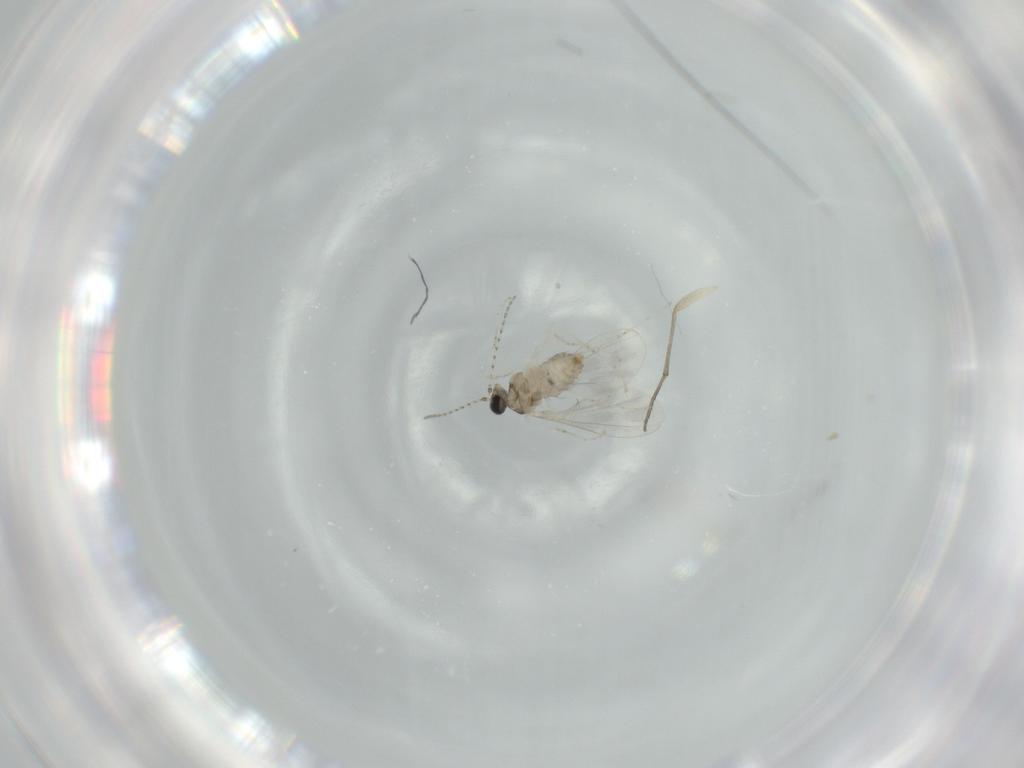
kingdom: Animalia
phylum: Arthropoda
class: Insecta
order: Diptera
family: Cecidomyiidae
